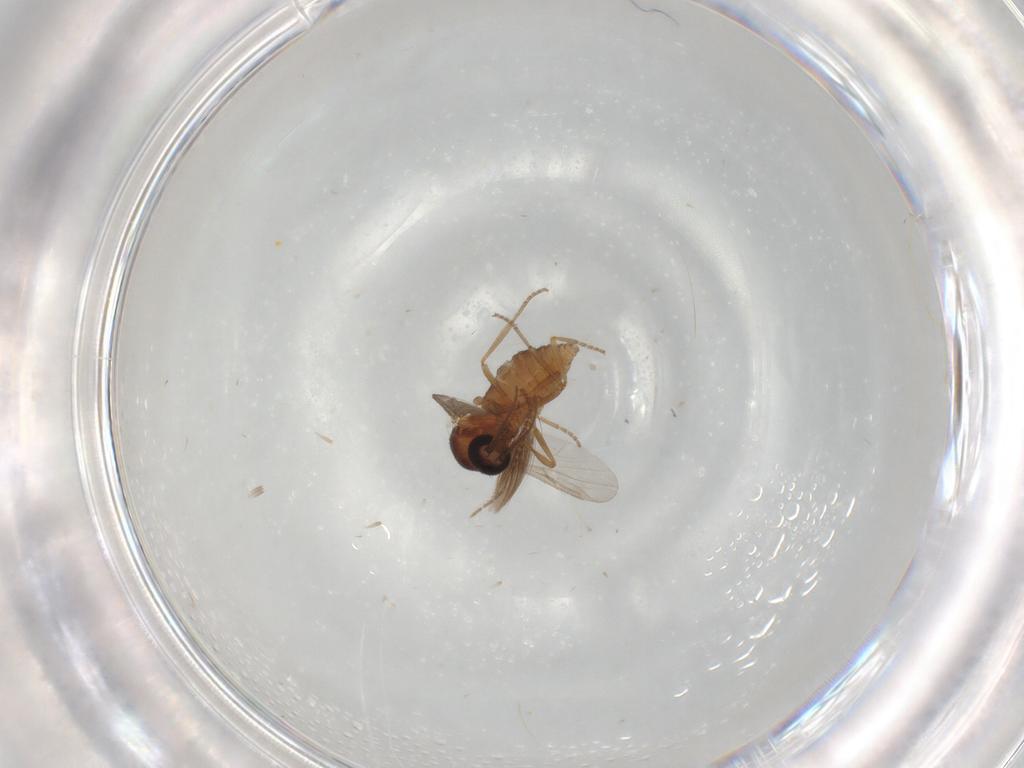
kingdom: Animalia
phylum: Arthropoda
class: Insecta
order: Diptera
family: Ceratopogonidae
